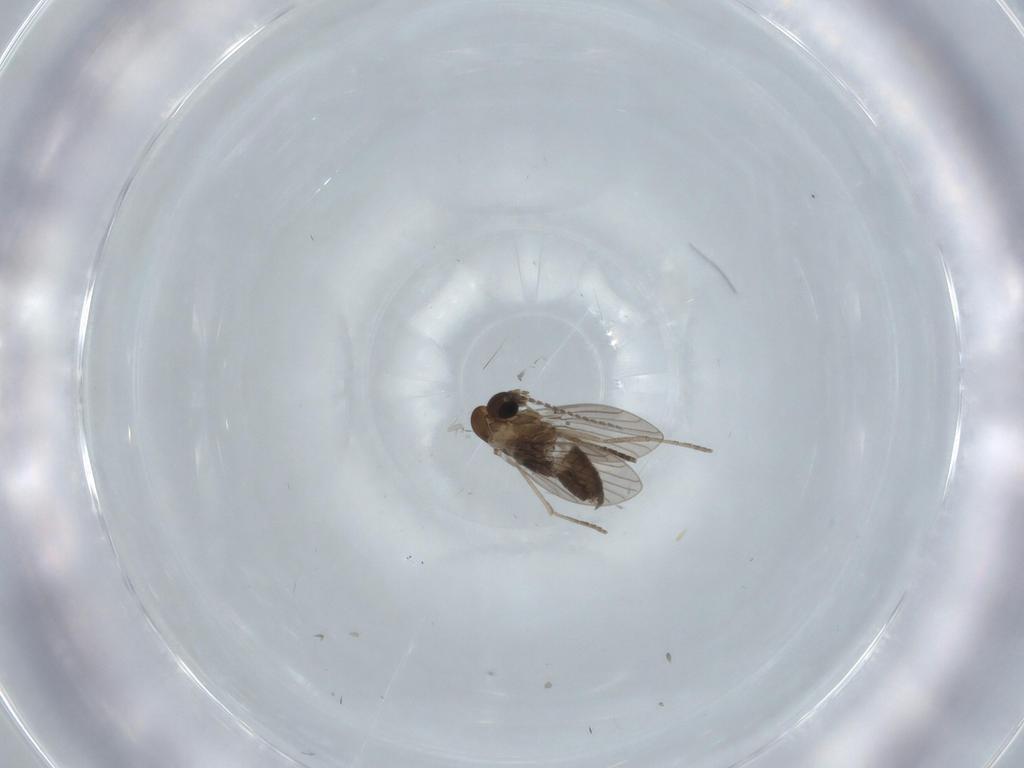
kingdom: Animalia
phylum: Arthropoda
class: Insecta
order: Diptera
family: Psychodidae
